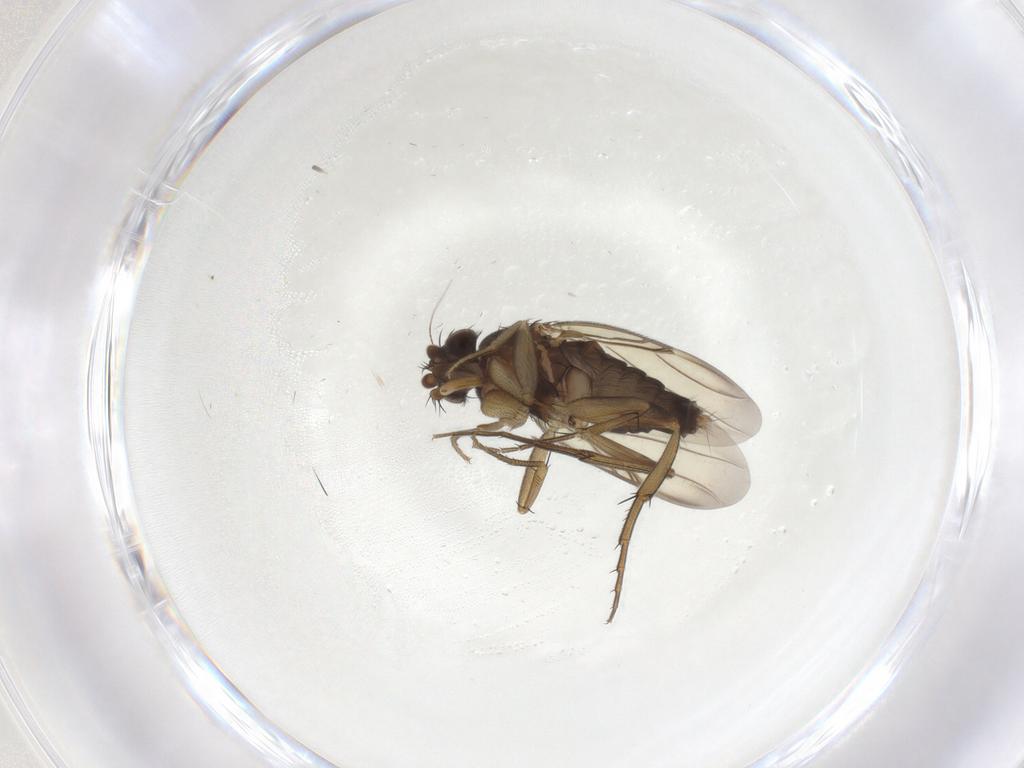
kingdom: Animalia
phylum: Arthropoda
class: Insecta
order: Diptera
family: Phoridae
